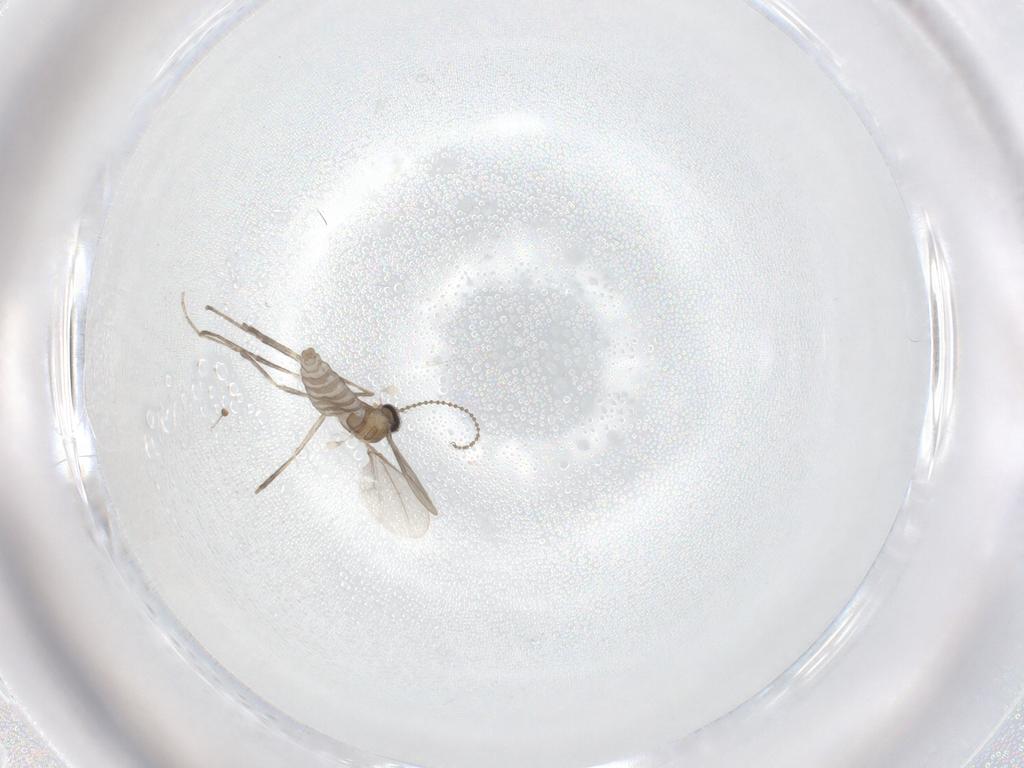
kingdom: Animalia
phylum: Arthropoda
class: Insecta
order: Diptera
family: Cecidomyiidae
